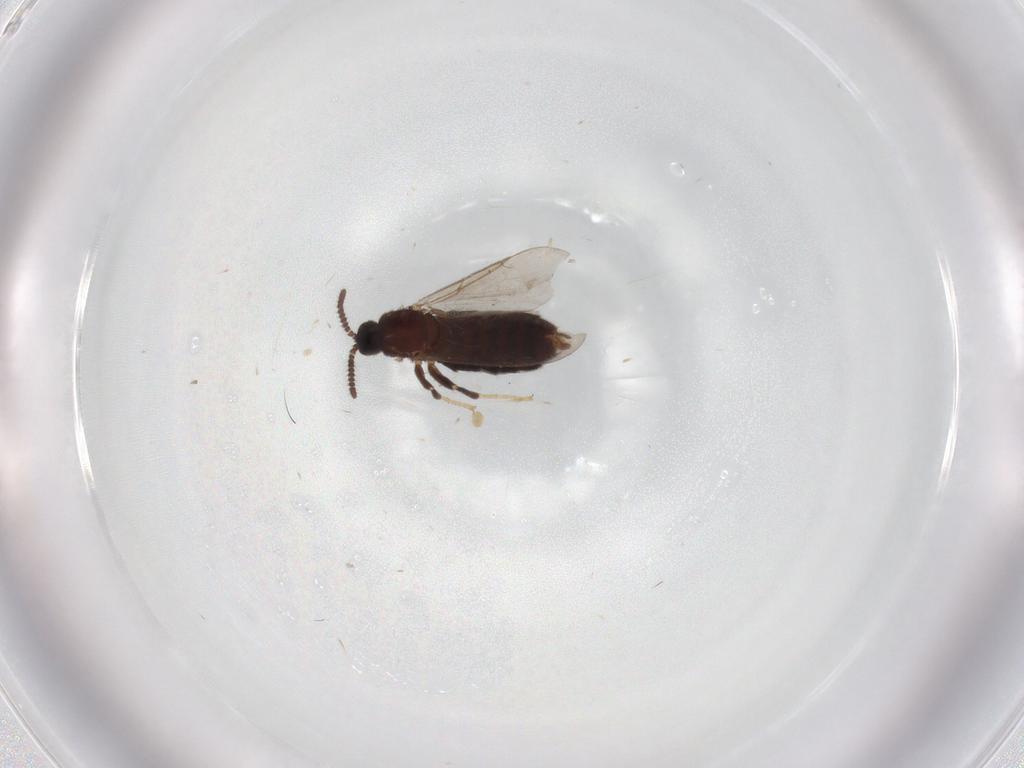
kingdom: Animalia
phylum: Arthropoda
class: Insecta
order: Diptera
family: Scatopsidae
